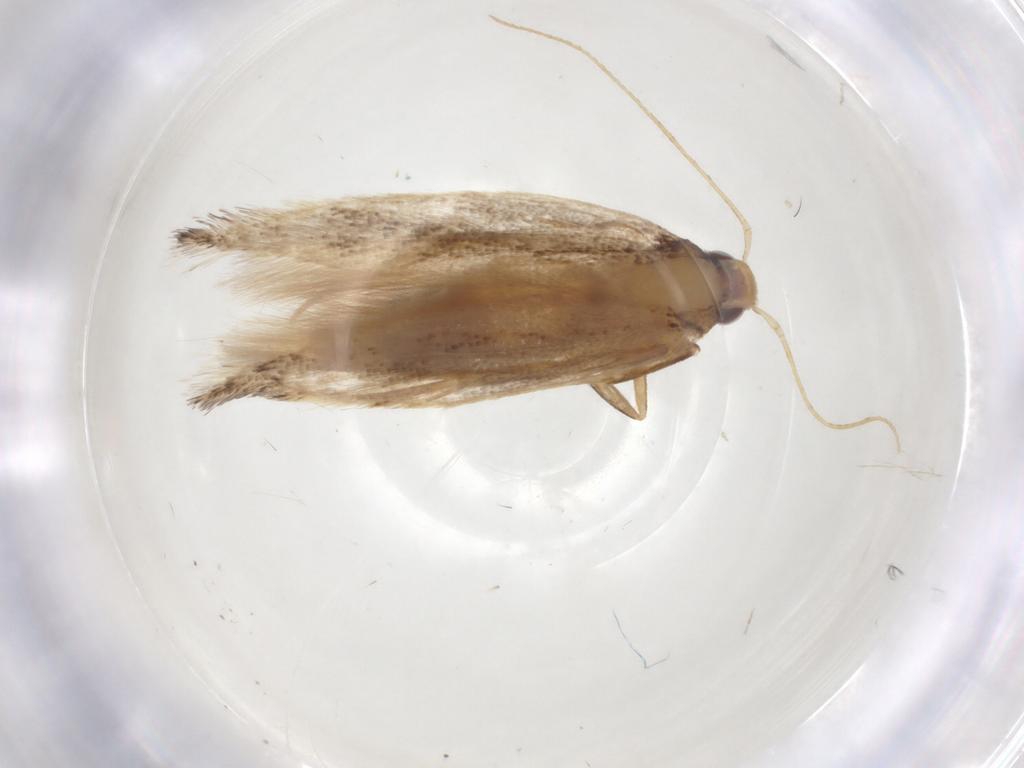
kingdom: Animalia
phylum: Arthropoda
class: Insecta
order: Lepidoptera
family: Cosmopterigidae
